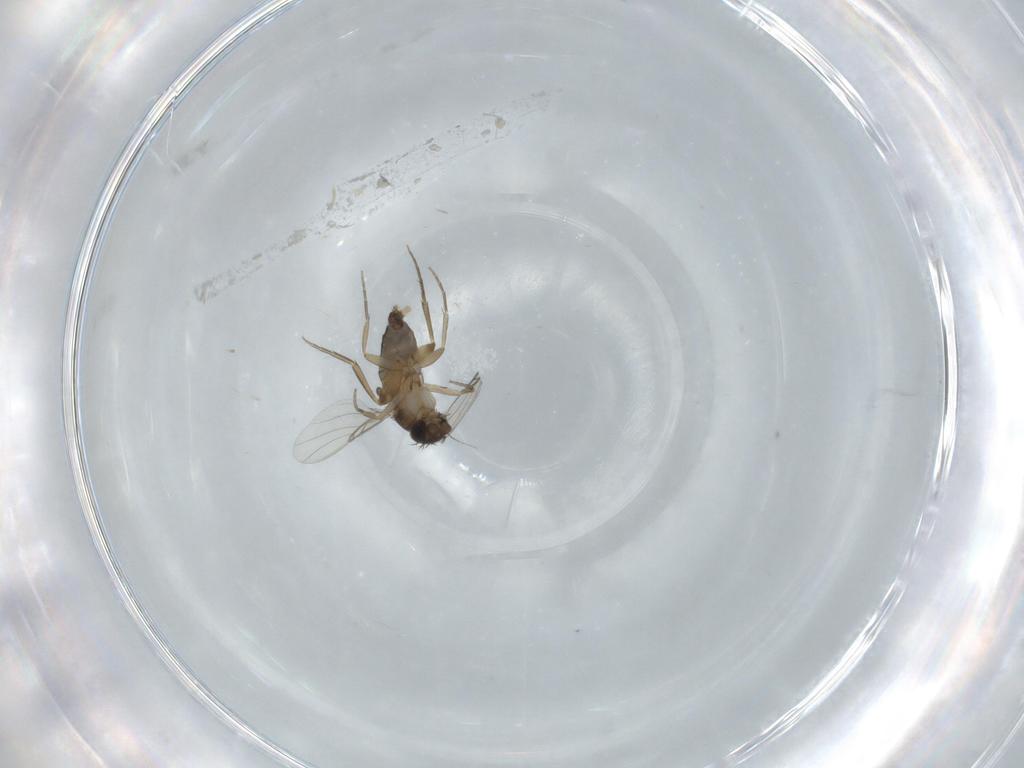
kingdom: Animalia
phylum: Arthropoda
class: Insecta
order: Diptera
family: Phoridae
